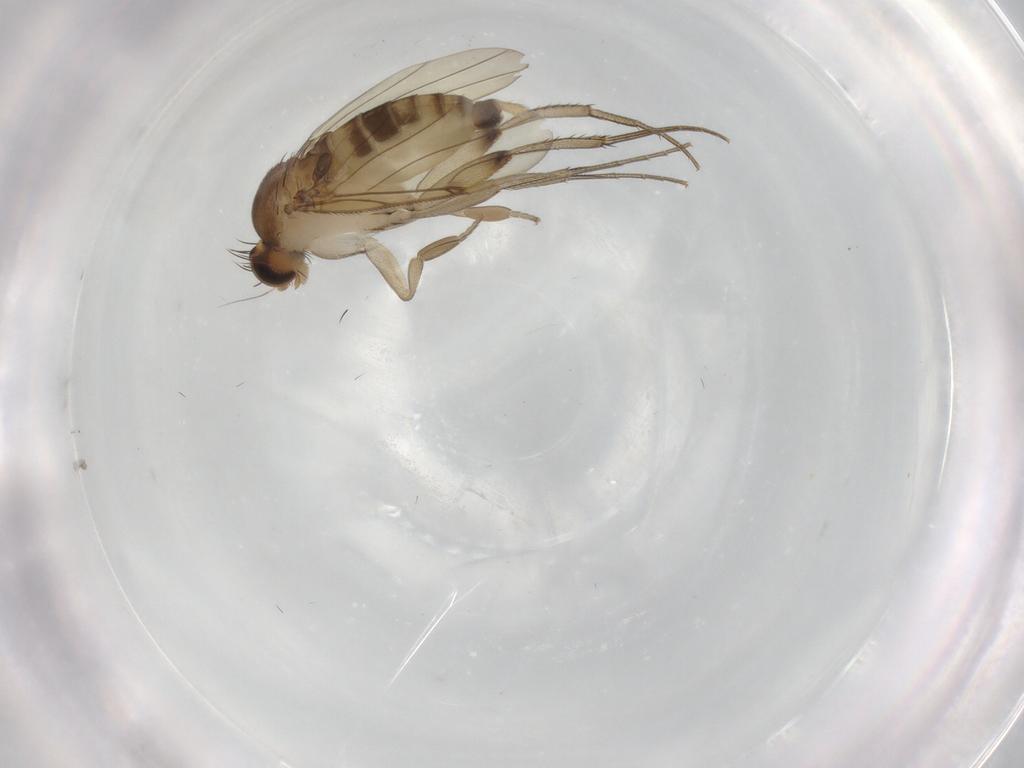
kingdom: Animalia
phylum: Arthropoda
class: Insecta
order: Diptera
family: Phoridae
